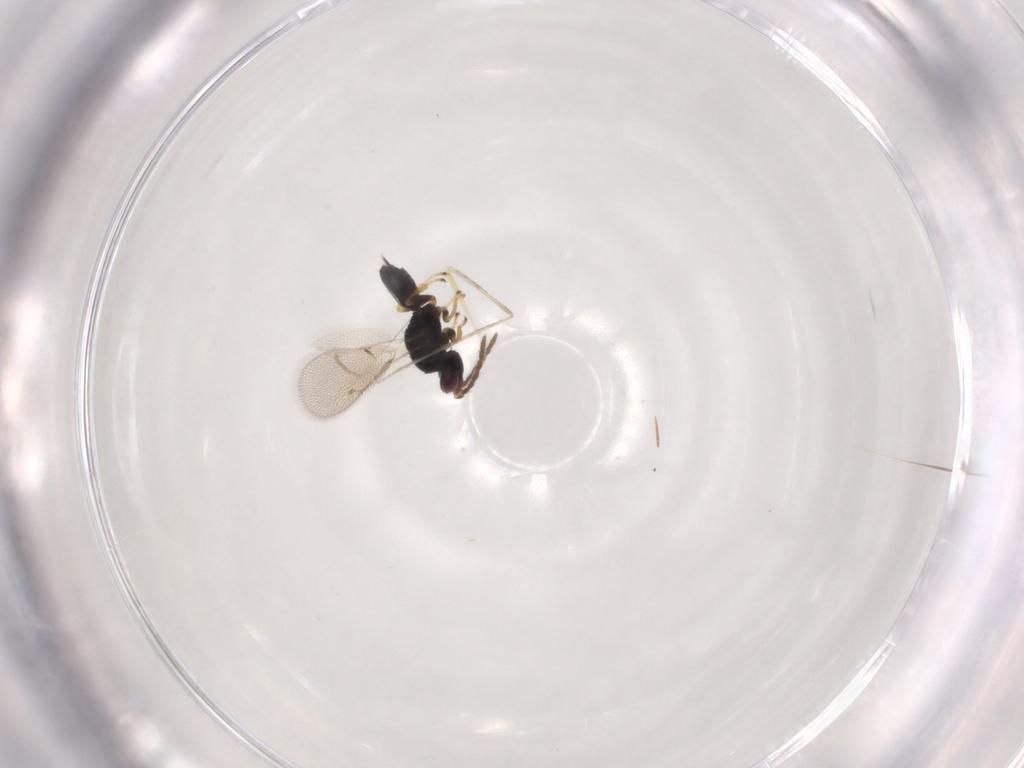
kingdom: Animalia
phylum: Arthropoda
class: Insecta
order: Hymenoptera
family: Eulophidae
